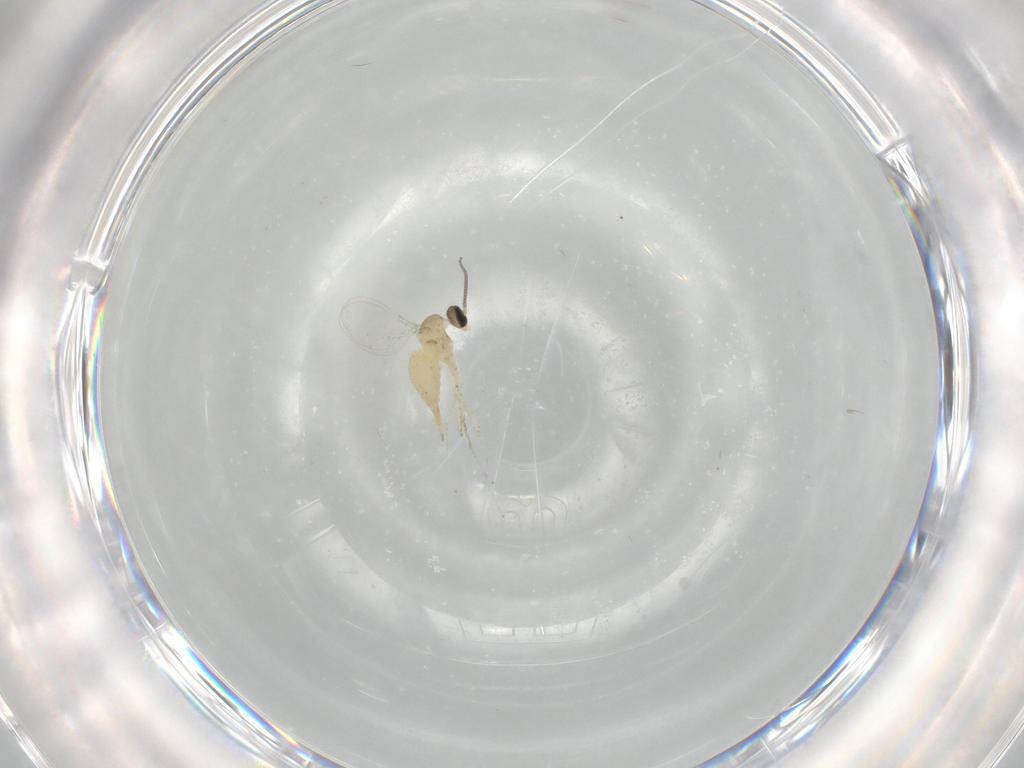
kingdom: Animalia
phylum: Arthropoda
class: Insecta
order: Diptera
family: Cecidomyiidae
